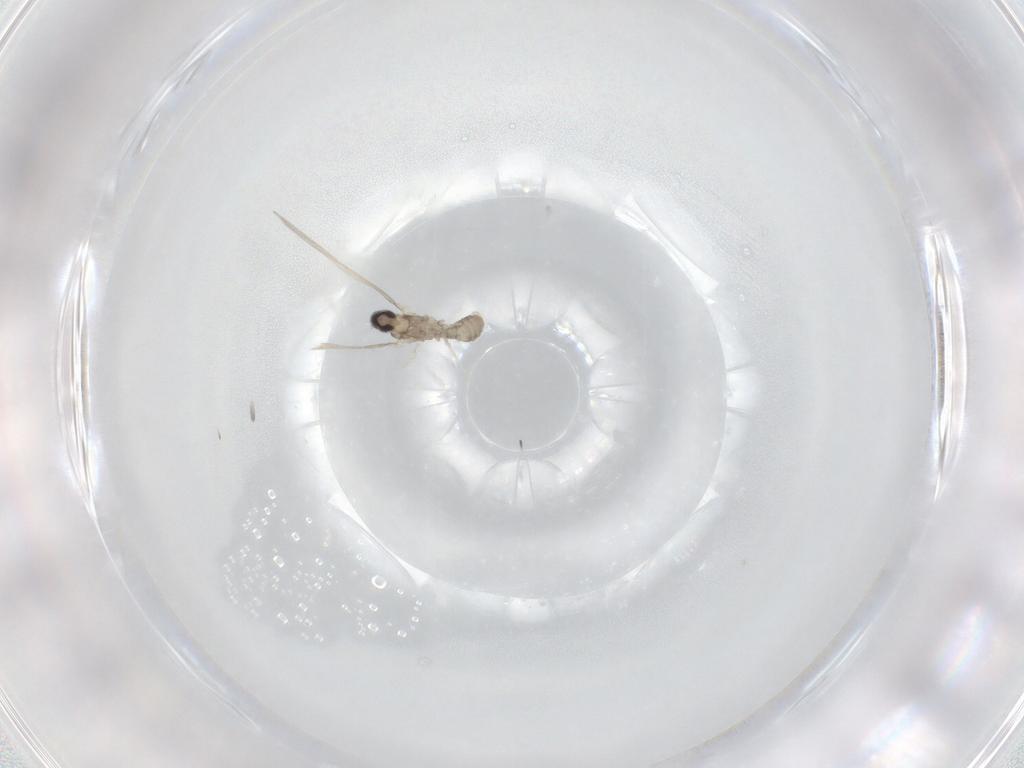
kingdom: Animalia
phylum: Arthropoda
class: Insecta
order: Diptera
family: Cecidomyiidae
